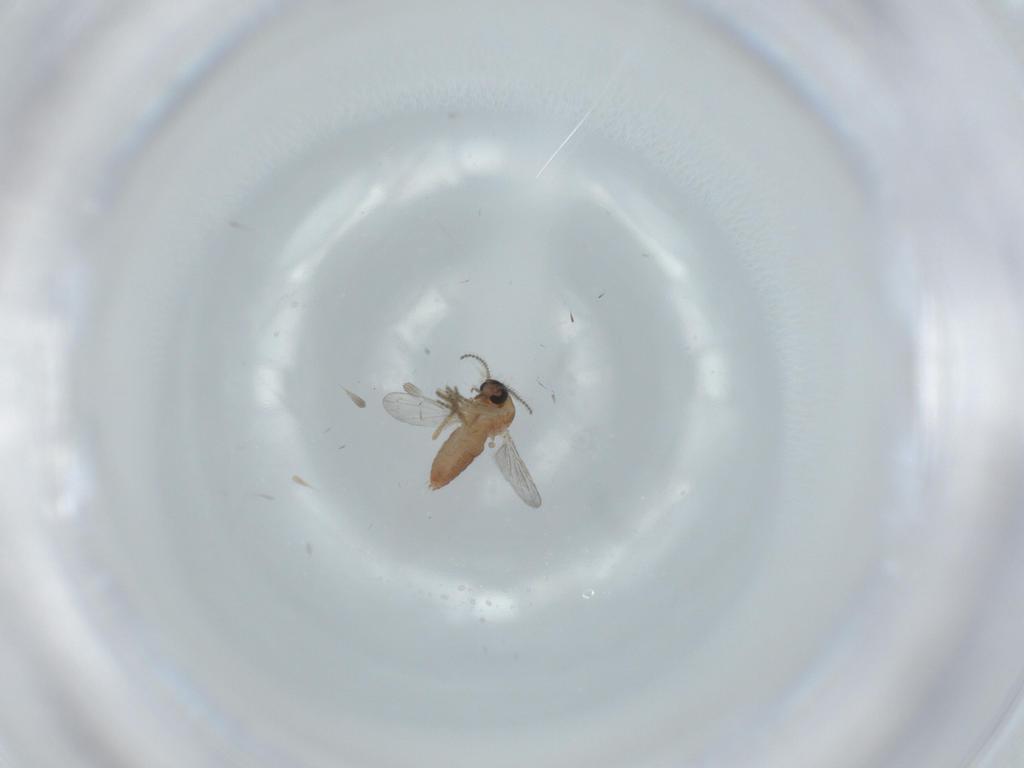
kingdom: Animalia
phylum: Arthropoda
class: Insecta
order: Diptera
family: Ceratopogonidae
